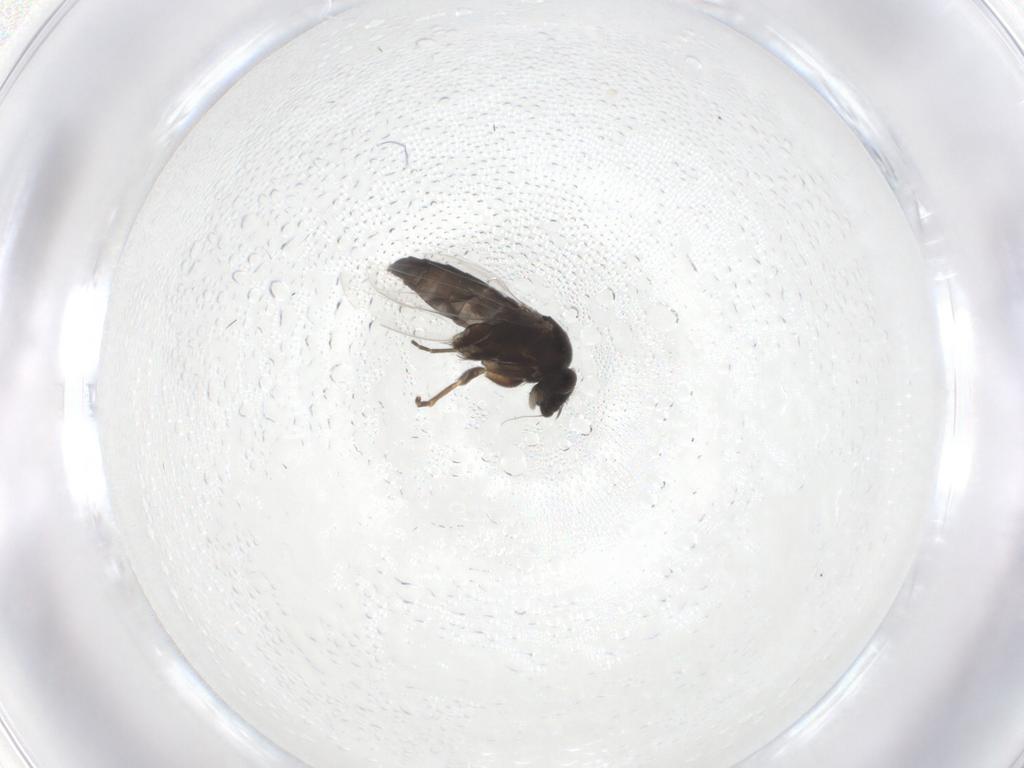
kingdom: Animalia
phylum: Arthropoda
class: Insecta
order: Diptera
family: Phoridae
